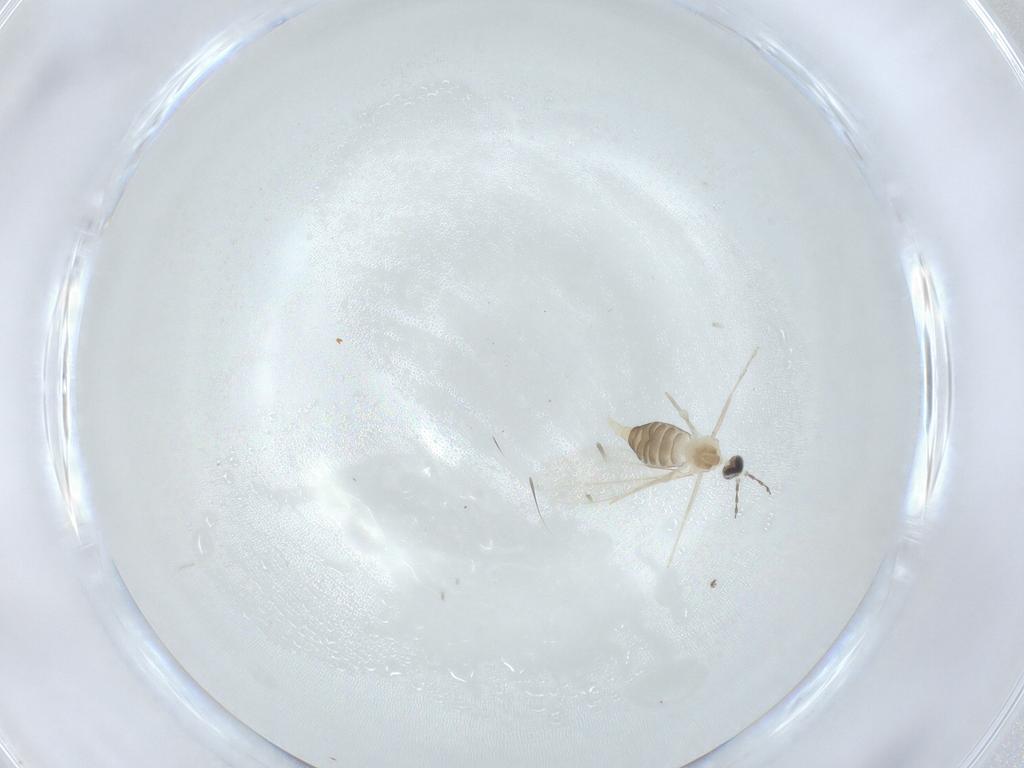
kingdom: Animalia
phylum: Arthropoda
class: Insecta
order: Diptera
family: Cecidomyiidae
